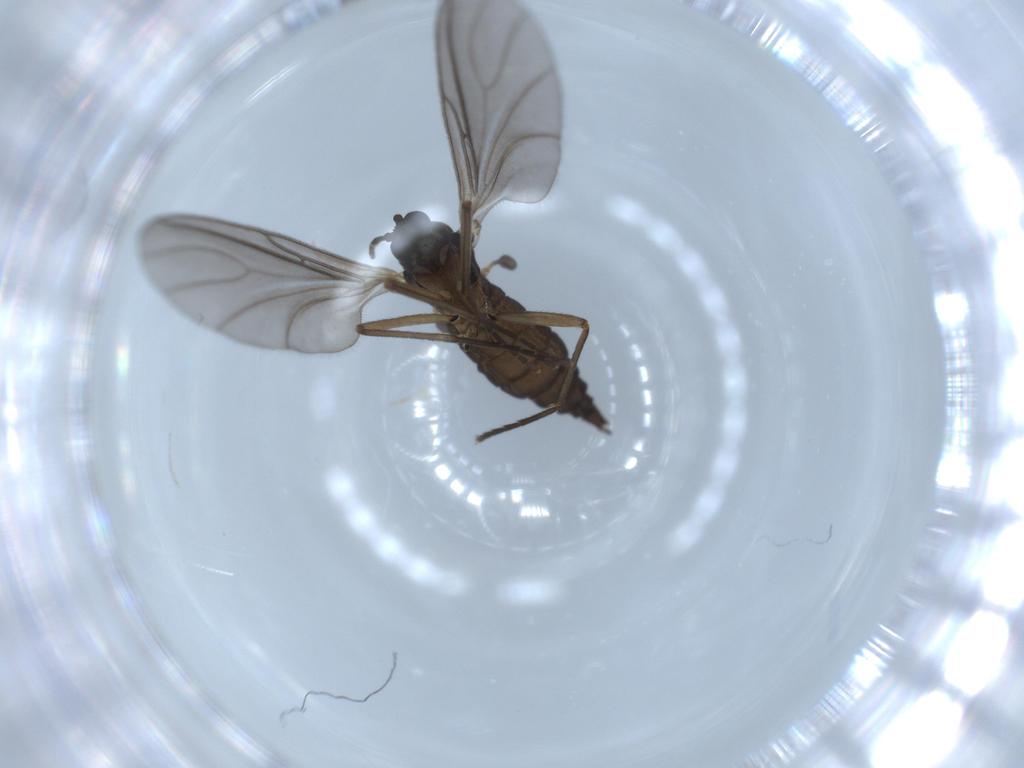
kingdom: Animalia
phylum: Arthropoda
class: Insecta
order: Diptera
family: Sciaridae
